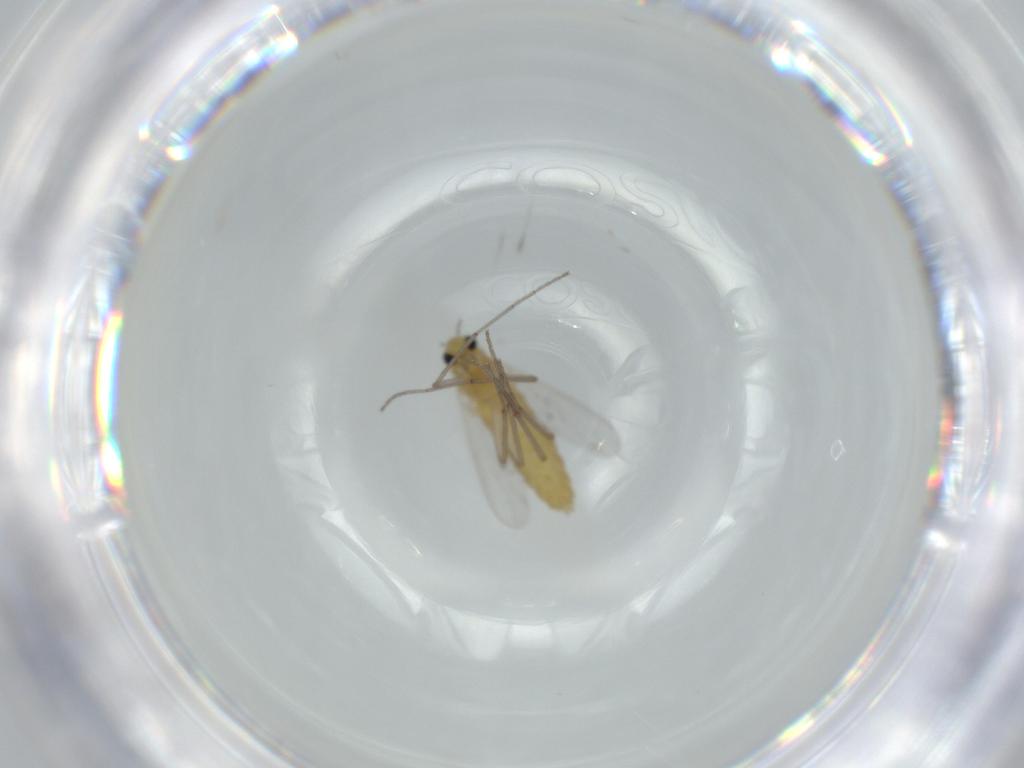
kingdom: Animalia
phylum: Arthropoda
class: Insecta
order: Diptera
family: Chironomidae
